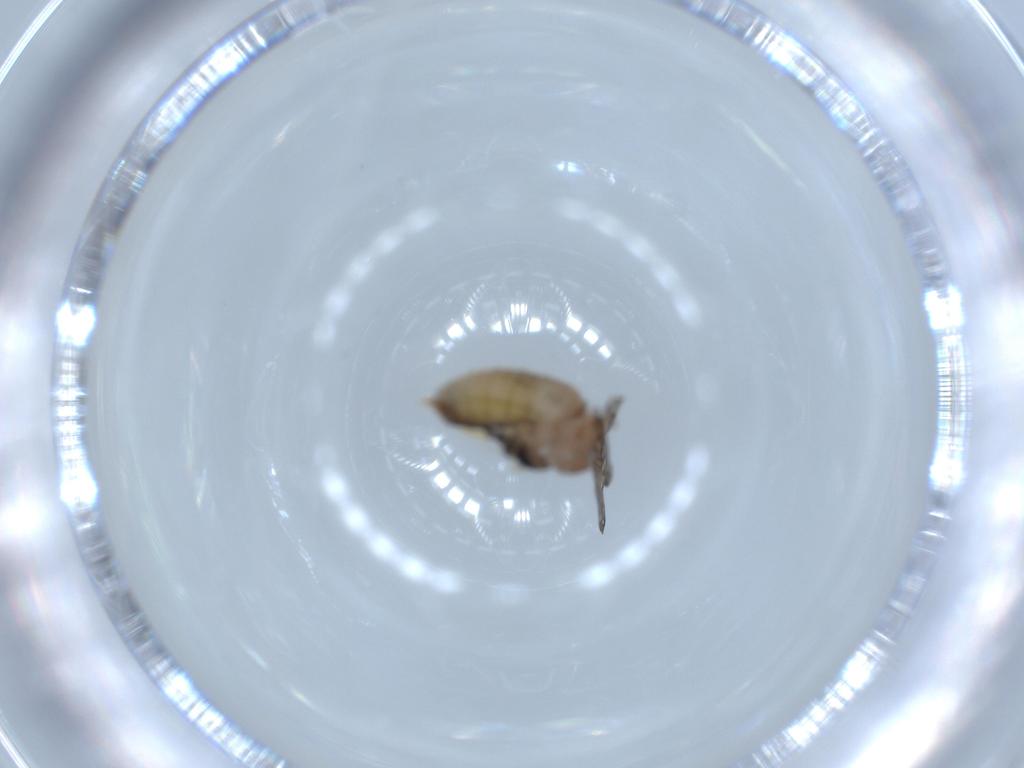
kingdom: Animalia
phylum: Arthropoda
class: Insecta
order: Diptera
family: Psychodidae
